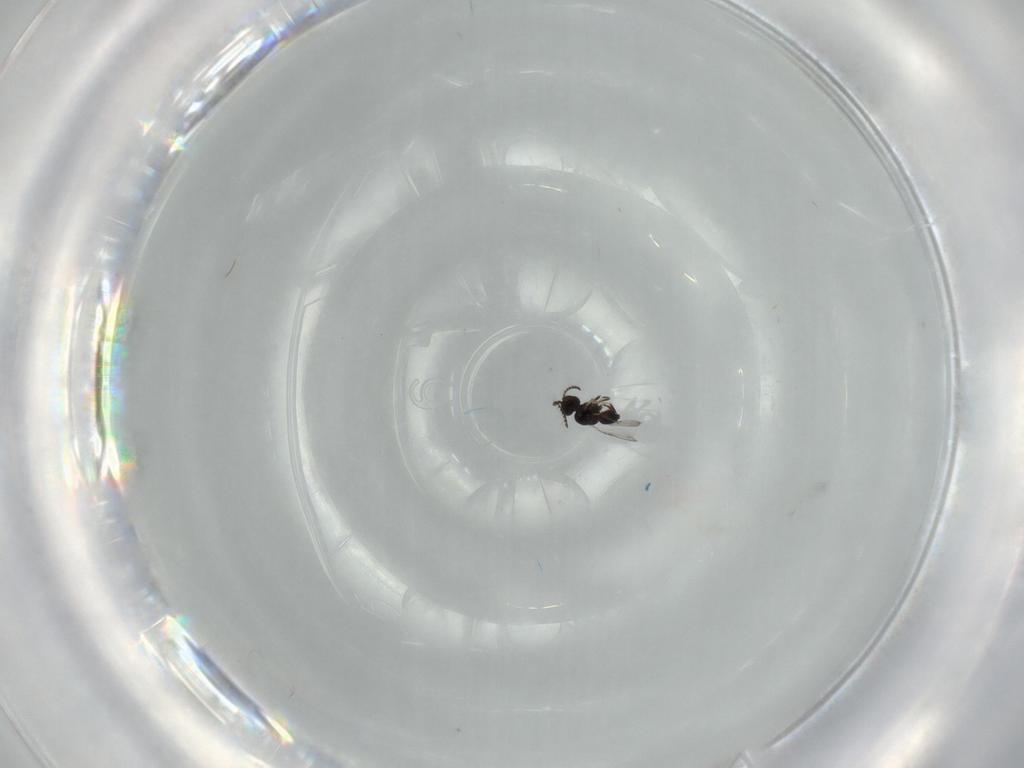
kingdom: Animalia
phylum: Arthropoda
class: Insecta
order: Hymenoptera
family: Ceraphronidae
